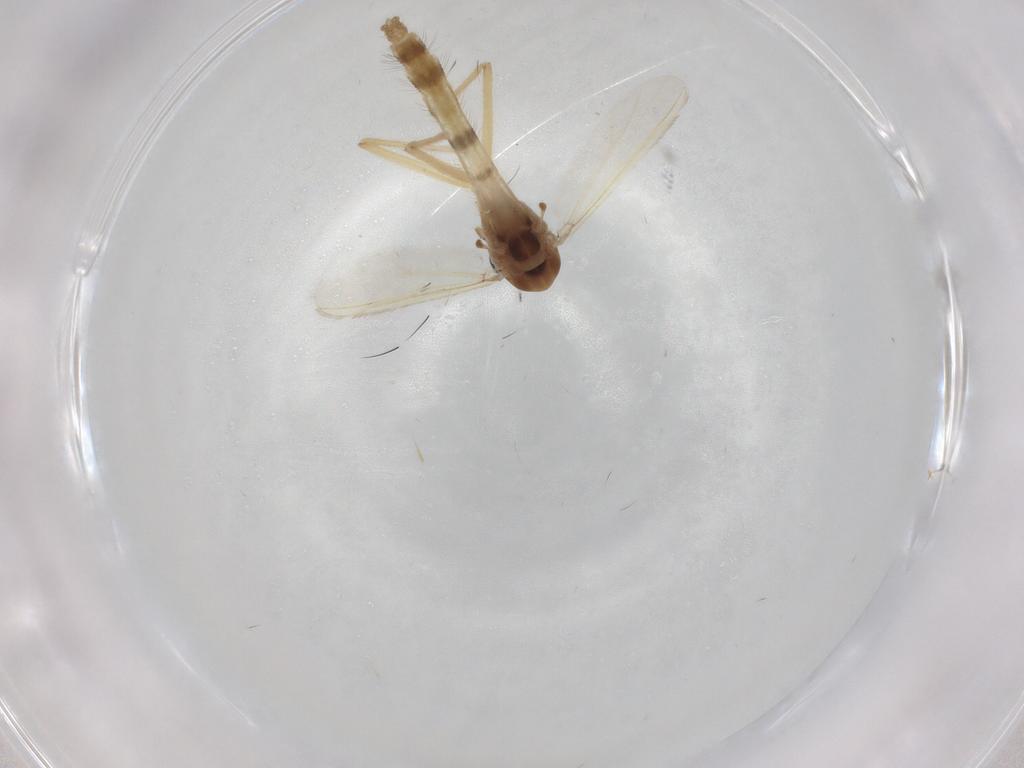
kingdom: Animalia
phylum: Arthropoda
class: Insecta
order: Diptera
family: Chironomidae
